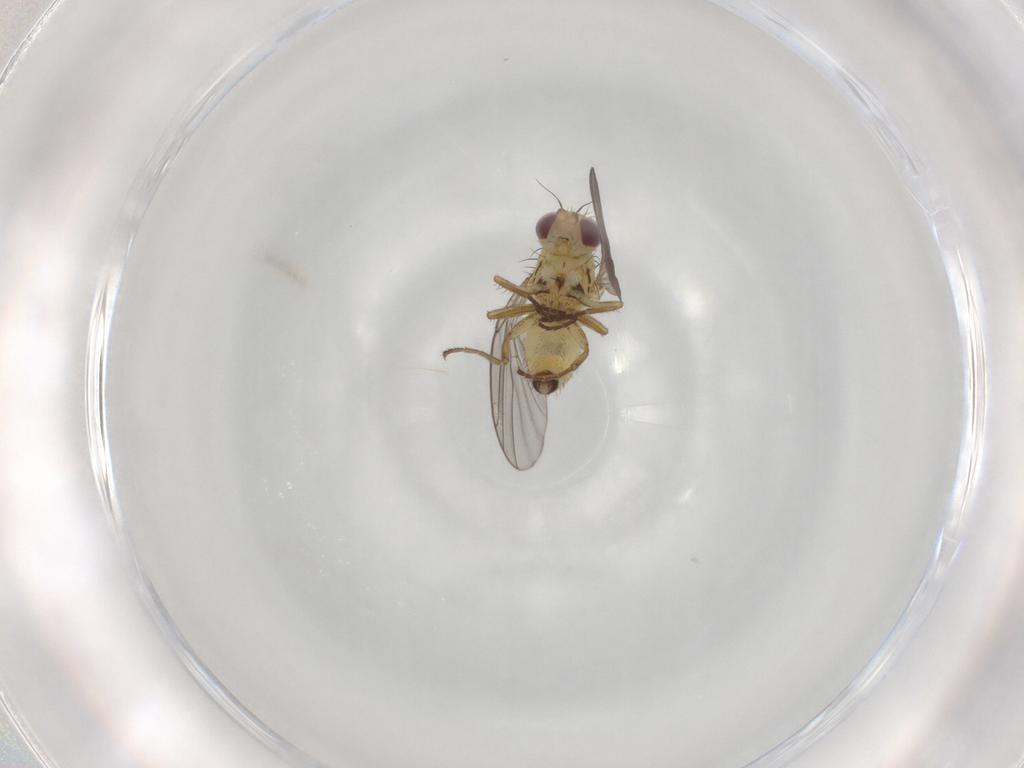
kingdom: Animalia
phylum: Arthropoda
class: Insecta
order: Diptera
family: Agromyzidae
